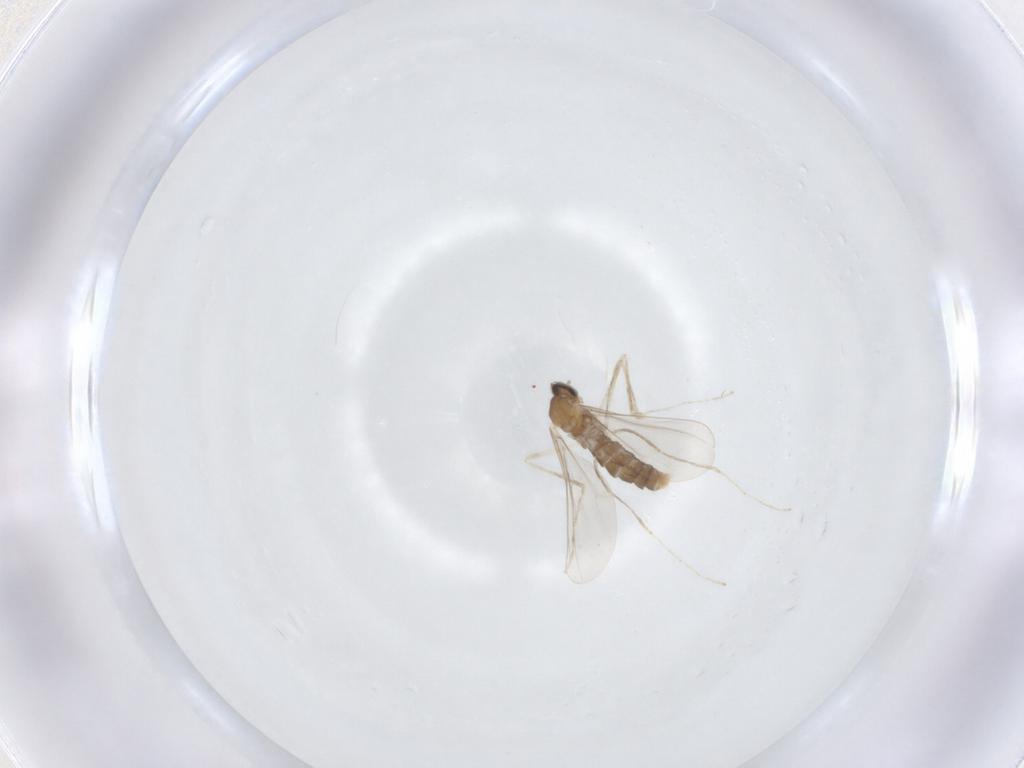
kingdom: Animalia
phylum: Arthropoda
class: Insecta
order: Diptera
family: Cecidomyiidae
